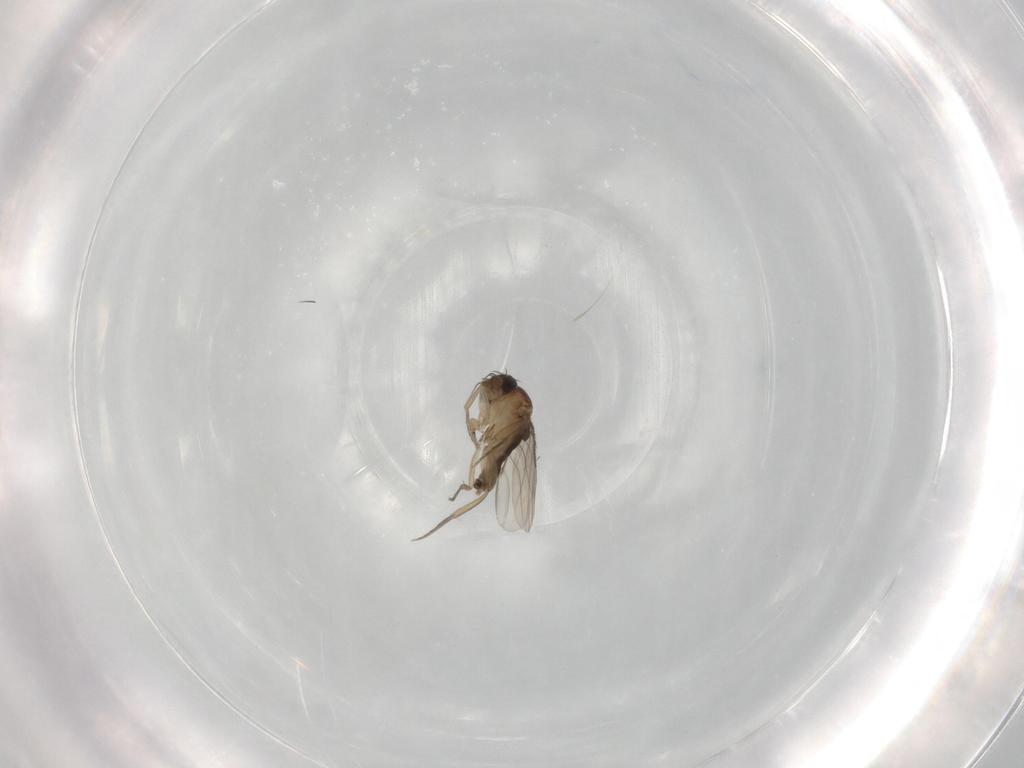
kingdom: Animalia
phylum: Arthropoda
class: Insecta
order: Diptera
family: Phoridae
